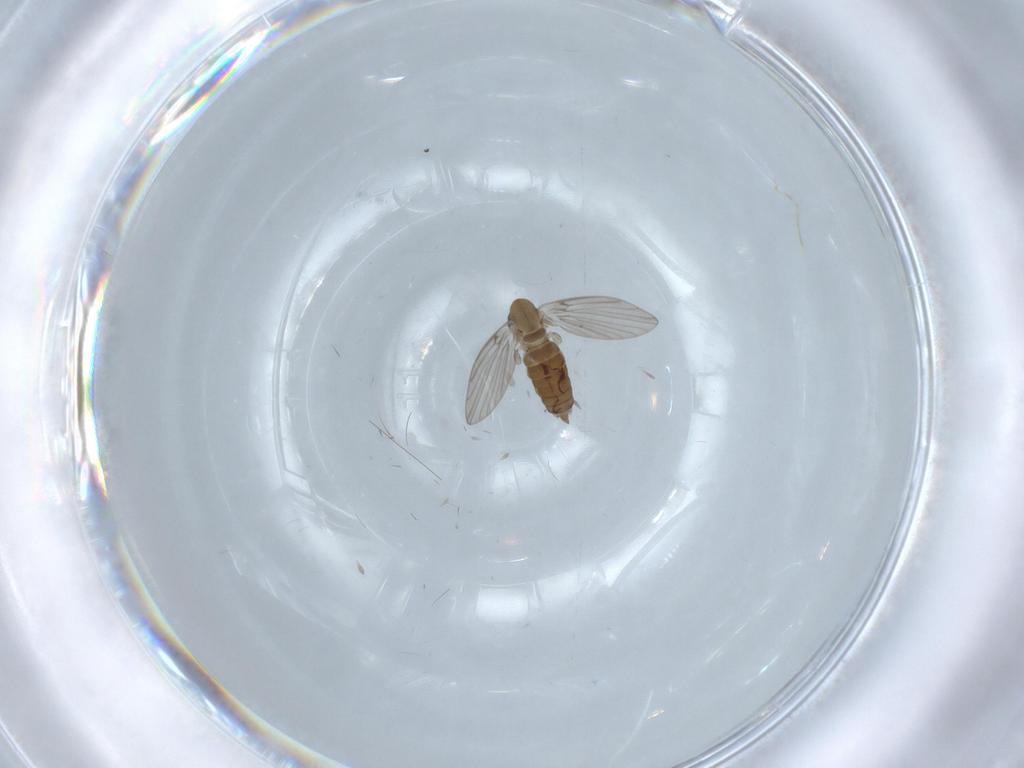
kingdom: Animalia
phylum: Arthropoda
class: Insecta
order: Diptera
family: Psychodidae
